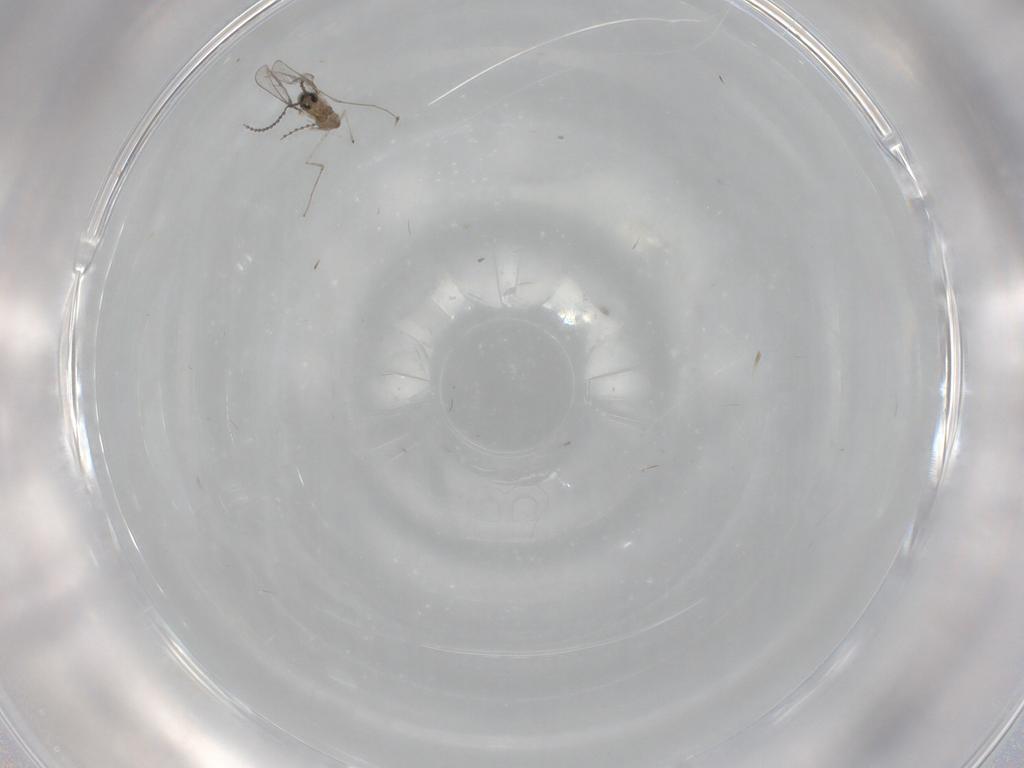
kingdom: Animalia
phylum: Arthropoda
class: Insecta
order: Diptera
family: Cecidomyiidae
